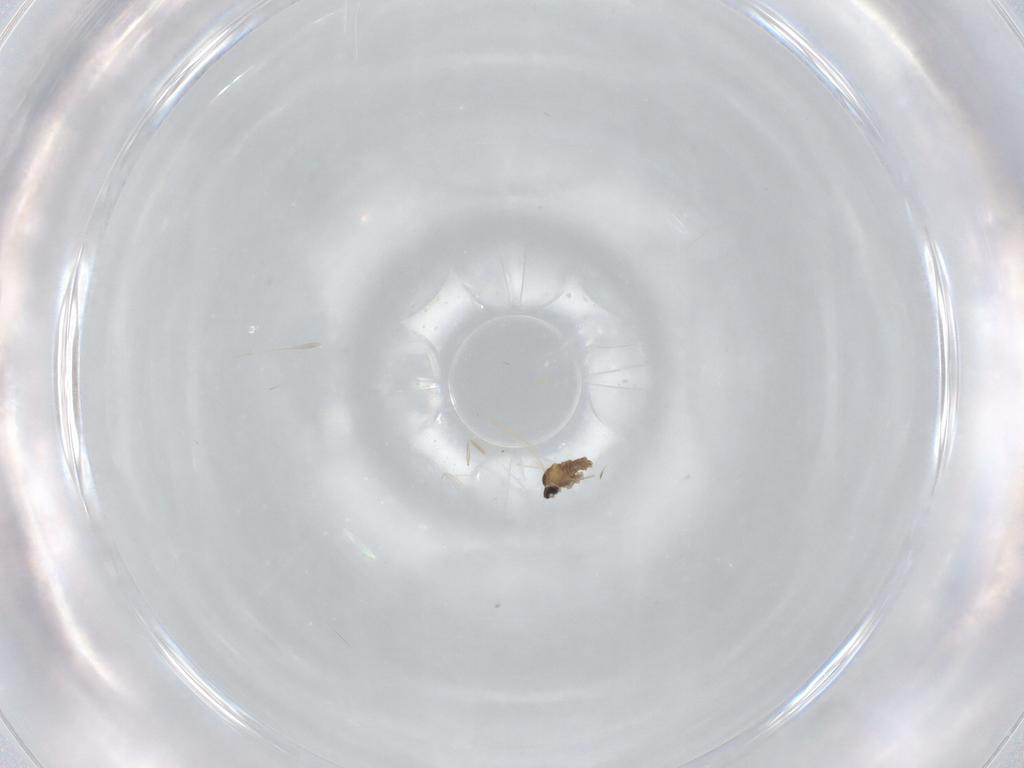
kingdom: Animalia
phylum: Arthropoda
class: Insecta
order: Diptera
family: Cecidomyiidae
